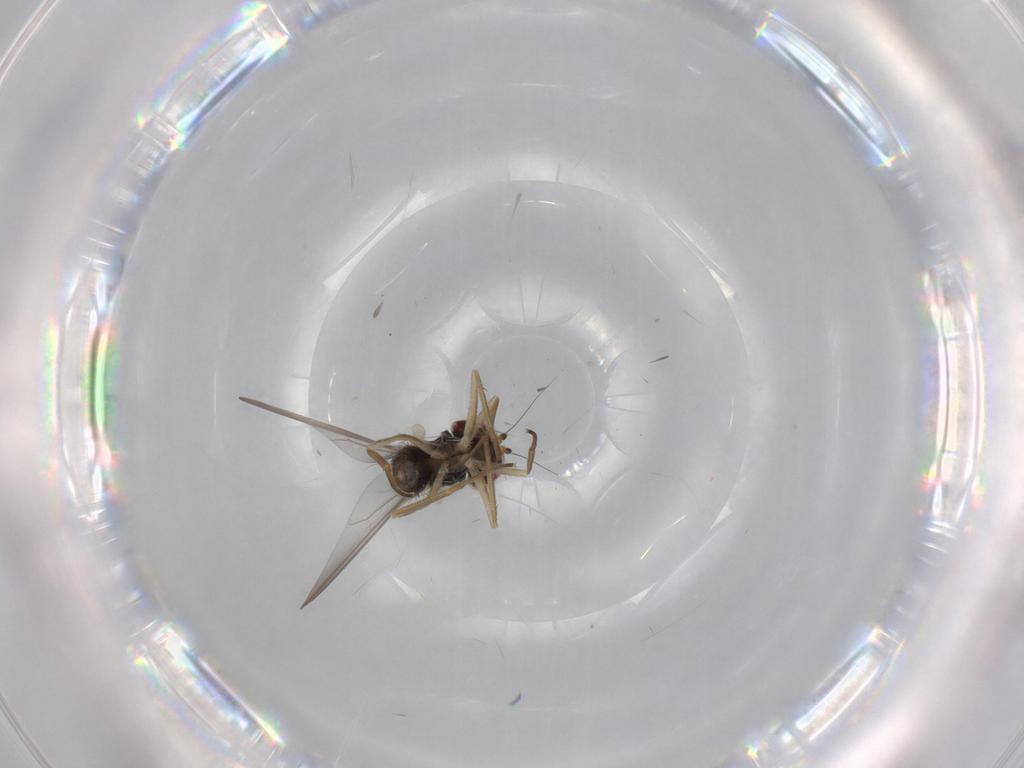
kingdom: Animalia
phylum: Arthropoda
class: Insecta
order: Diptera
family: Dolichopodidae
